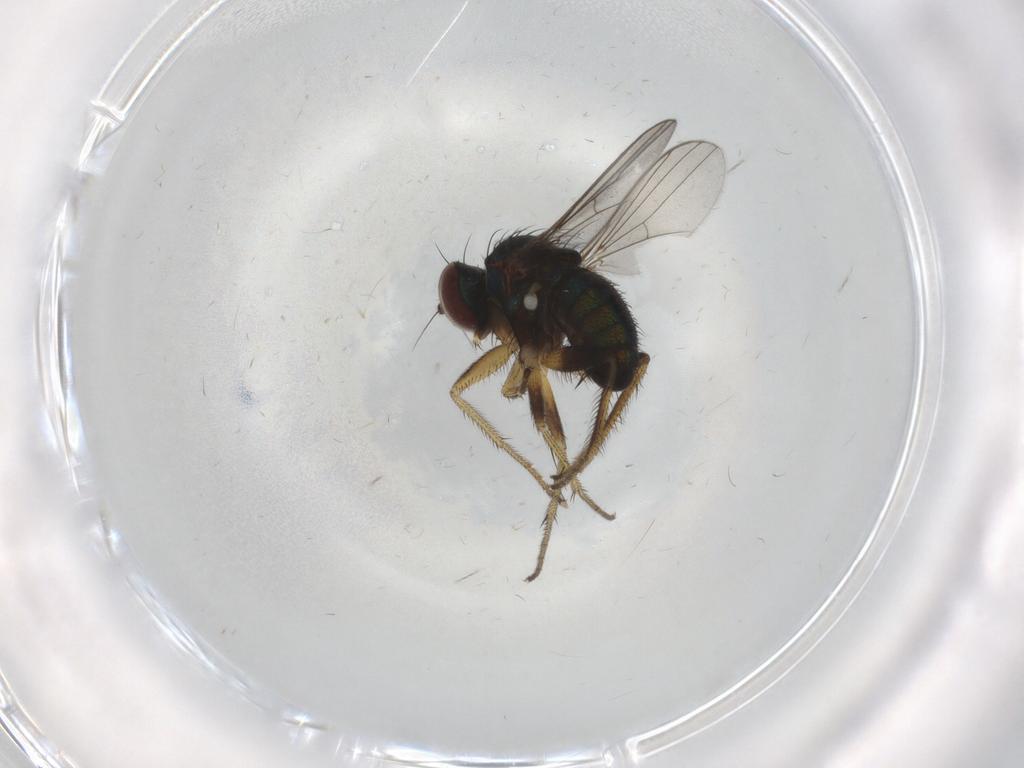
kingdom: Animalia
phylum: Arthropoda
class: Insecta
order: Diptera
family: Dolichopodidae
